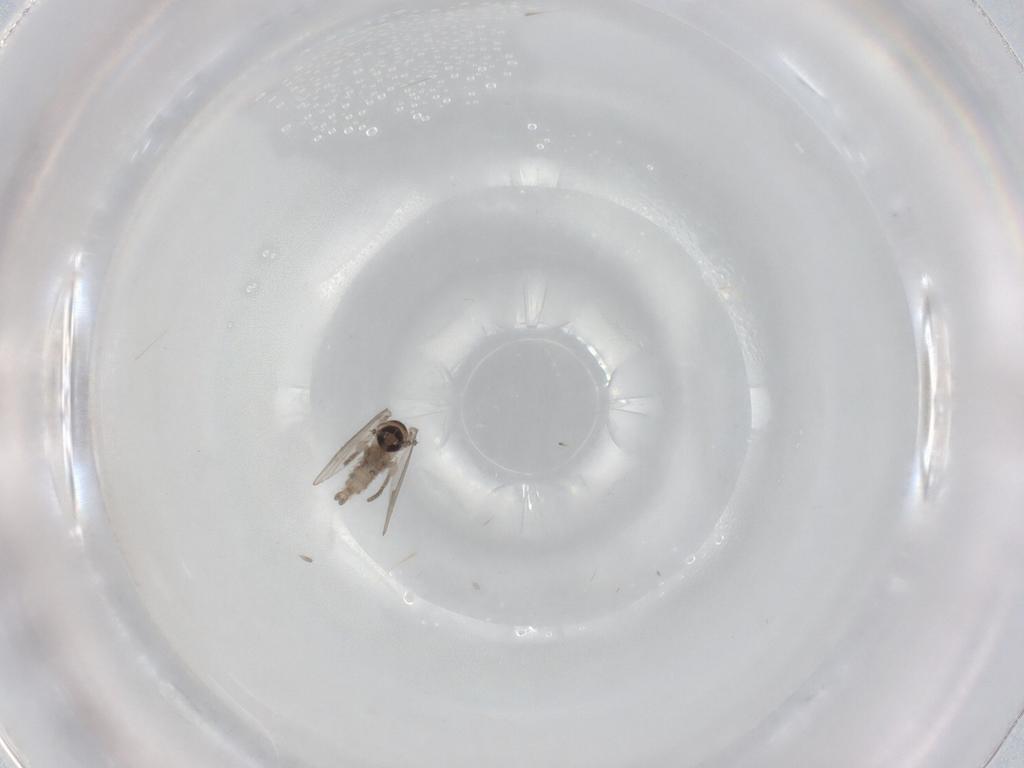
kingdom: Animalia
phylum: Arthropoda
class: Insecta
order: Diptera
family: Psychodidae
